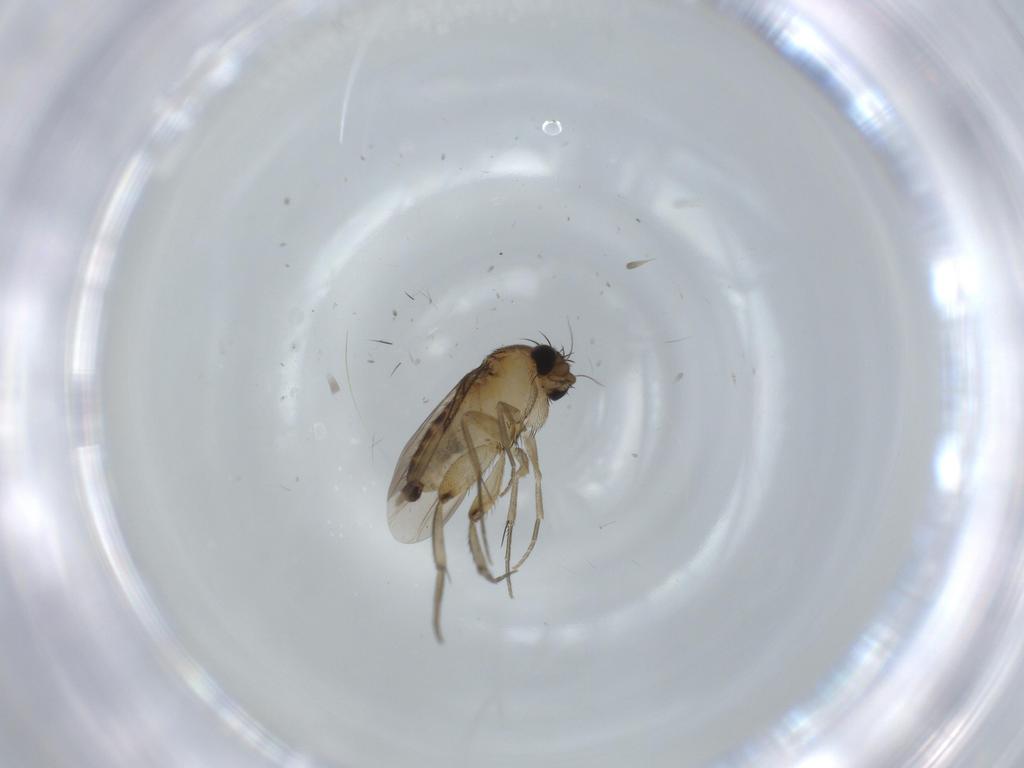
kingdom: Animalia
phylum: Arthropoda
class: Insecta
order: Diptera
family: Phoridae
